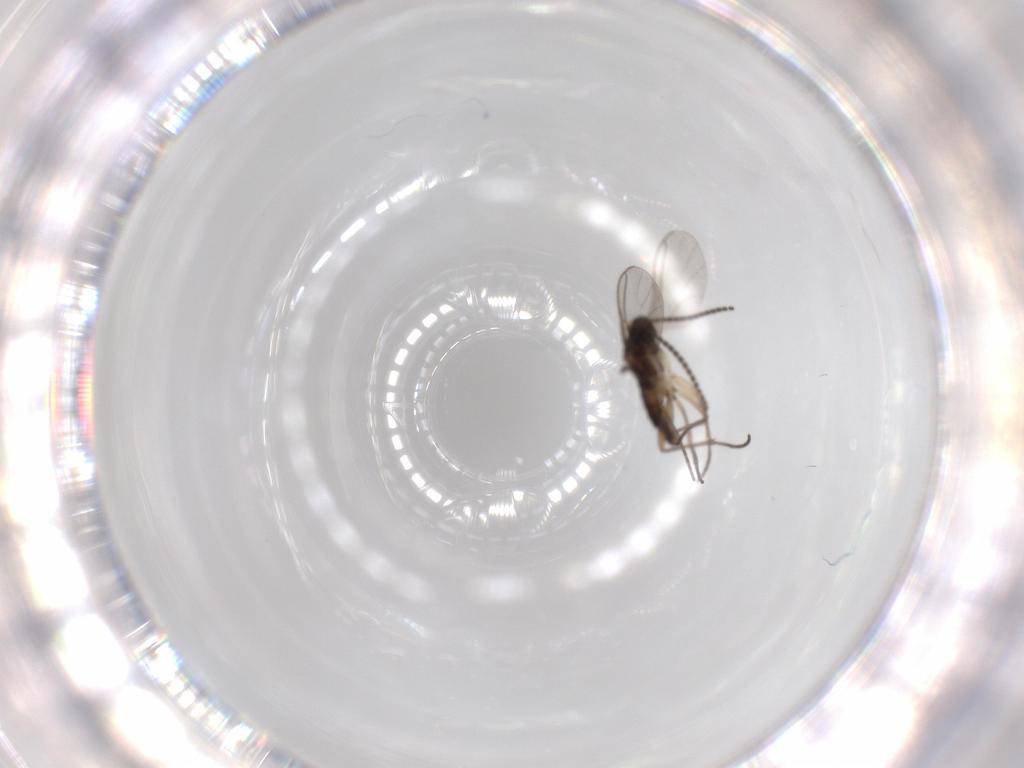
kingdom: Animalia
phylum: Arthropoda
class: Insecta
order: Diptera
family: Sciaridae
